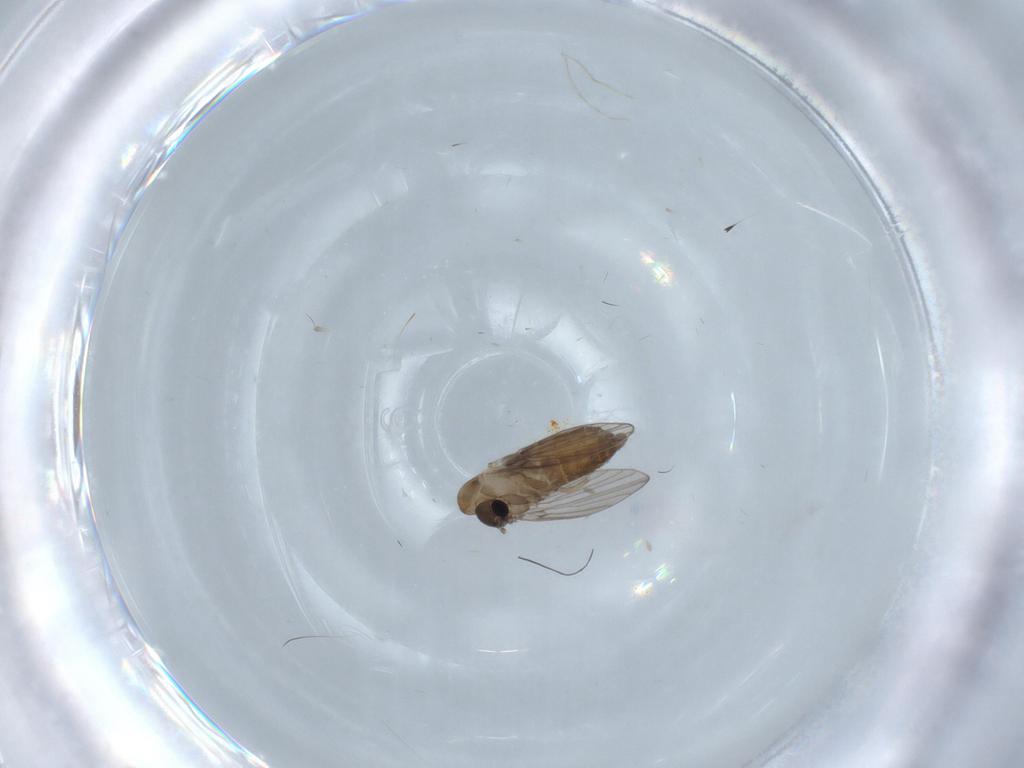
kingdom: Animalia
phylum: Arthropoda
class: Insecta
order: Diptera
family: Psychodidae
